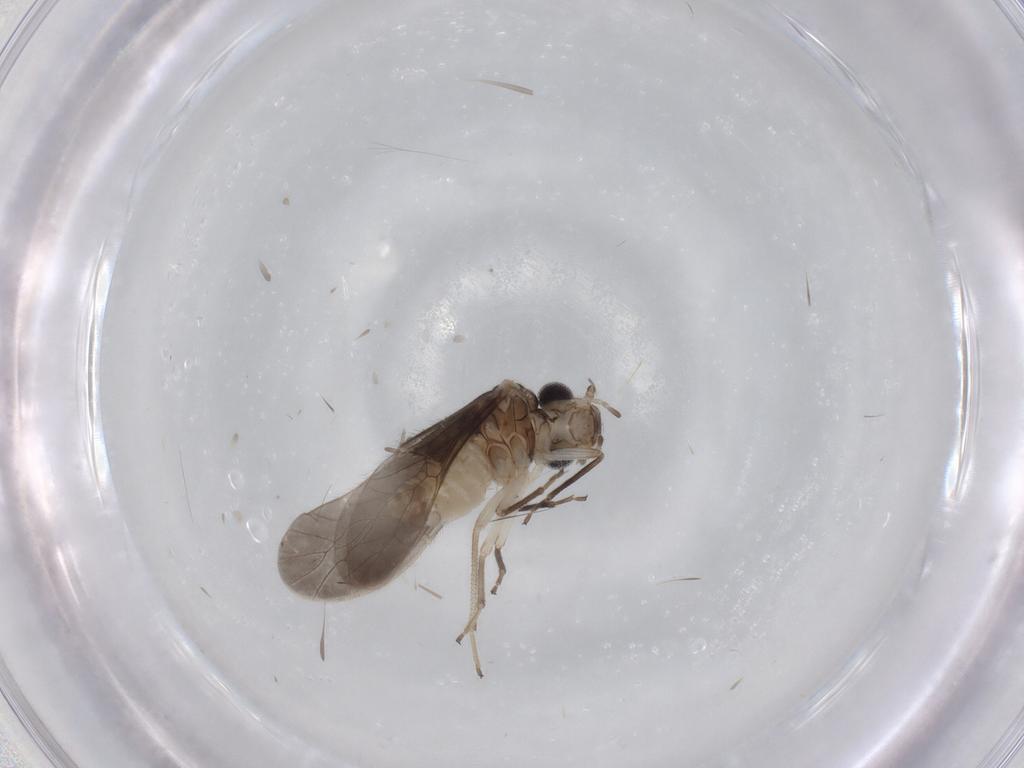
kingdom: Animalia
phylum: Arthropoda
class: Insecta
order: Psocodea
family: Caeciliusidae
